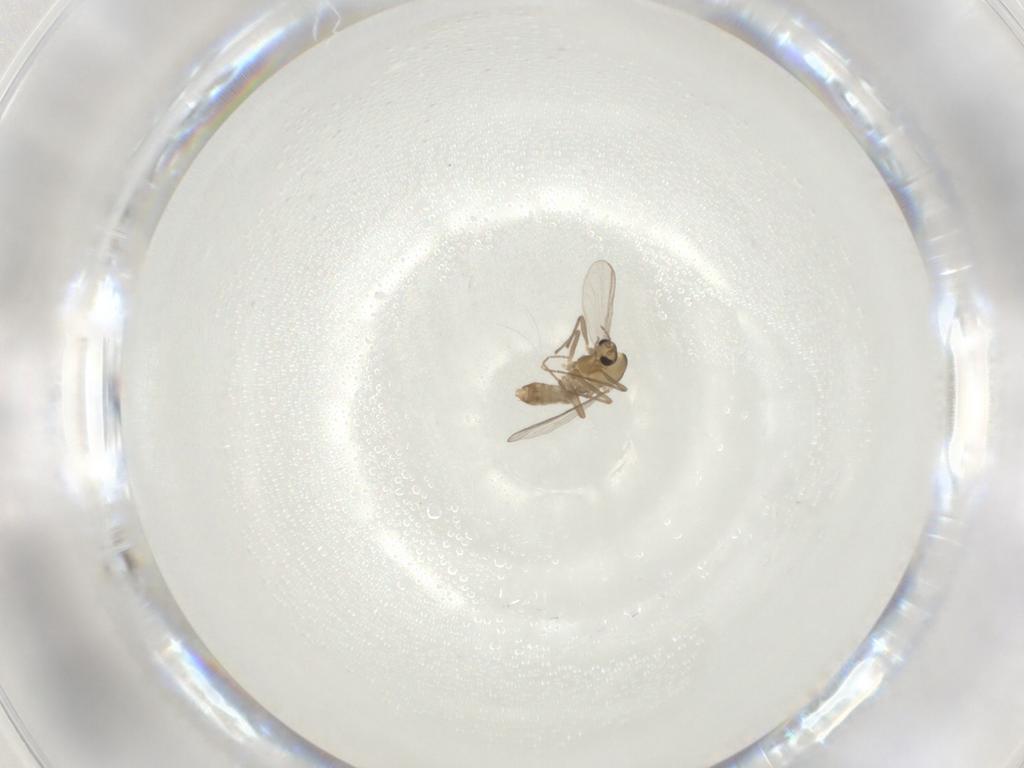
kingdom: Animalia
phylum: Arthropoda
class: Insecta
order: Diptera
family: Chironomidae
